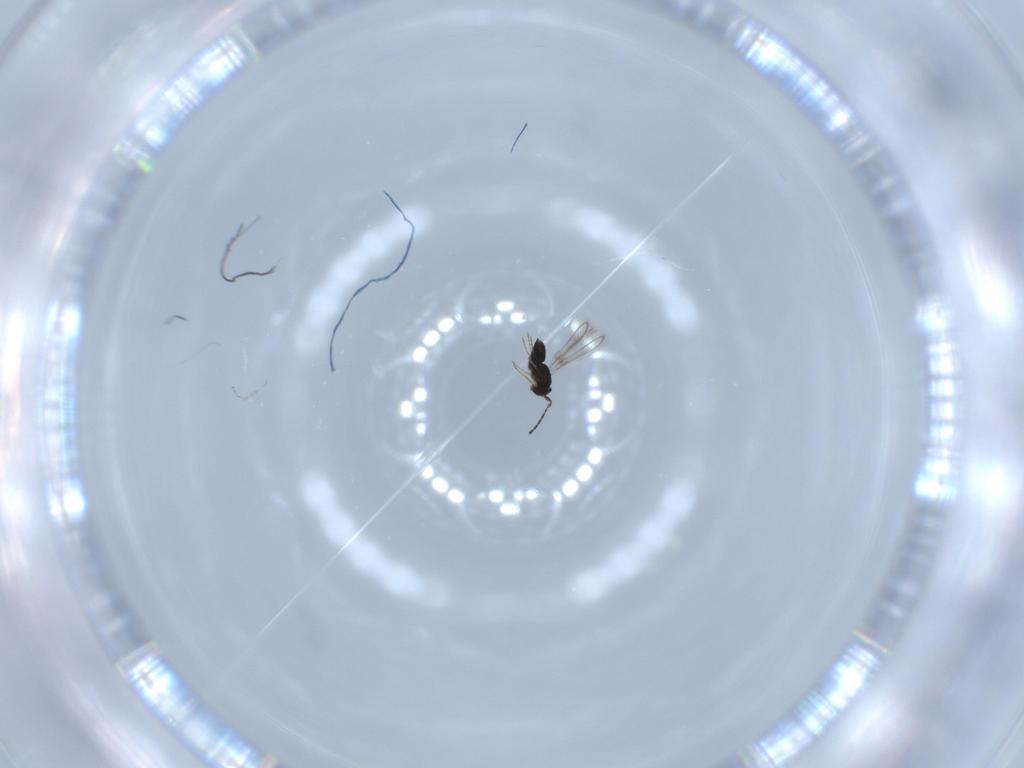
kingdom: Animalia
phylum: Arthropoda
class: Insecta
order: Hymenoptera
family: Mymaridae
